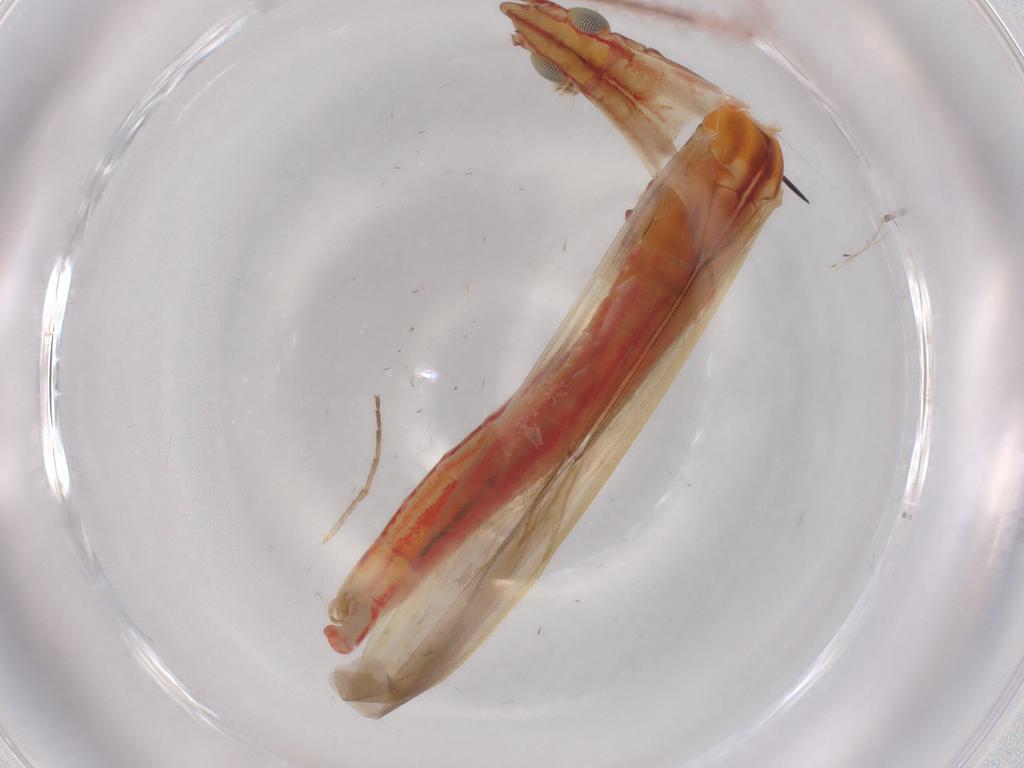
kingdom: Animalia
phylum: Arthropoda
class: Insecta
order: Hemiptera
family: Miridae
